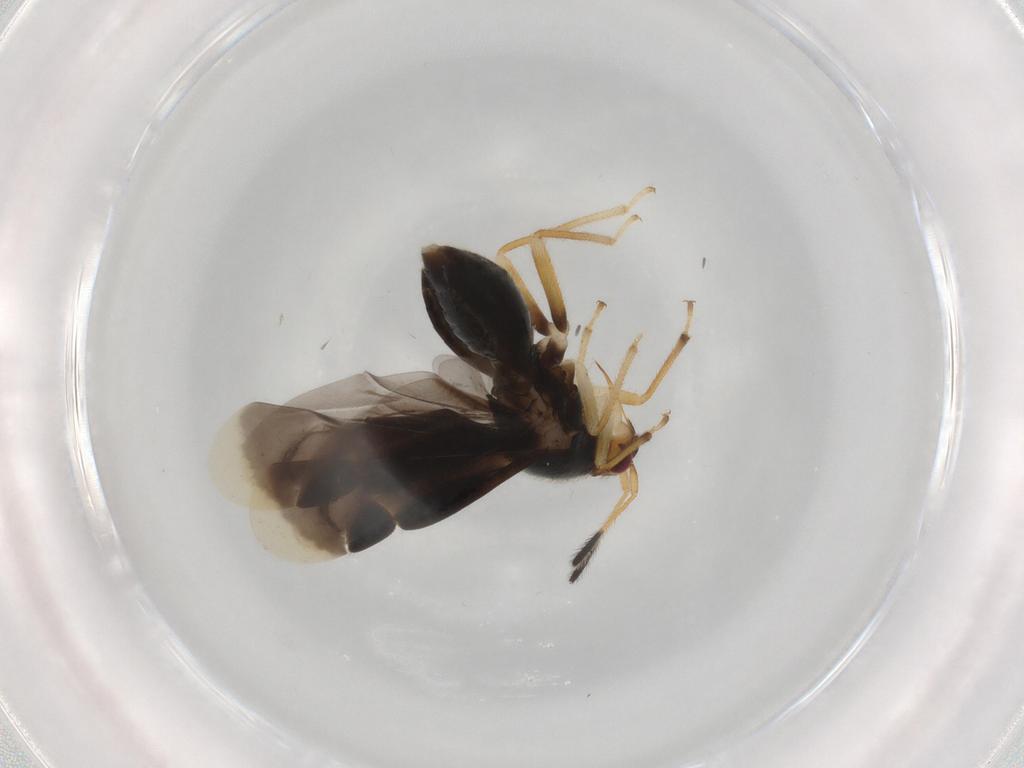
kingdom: Animalia
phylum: Arthropoda
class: Insecta
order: Hemiptera
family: Miridae
